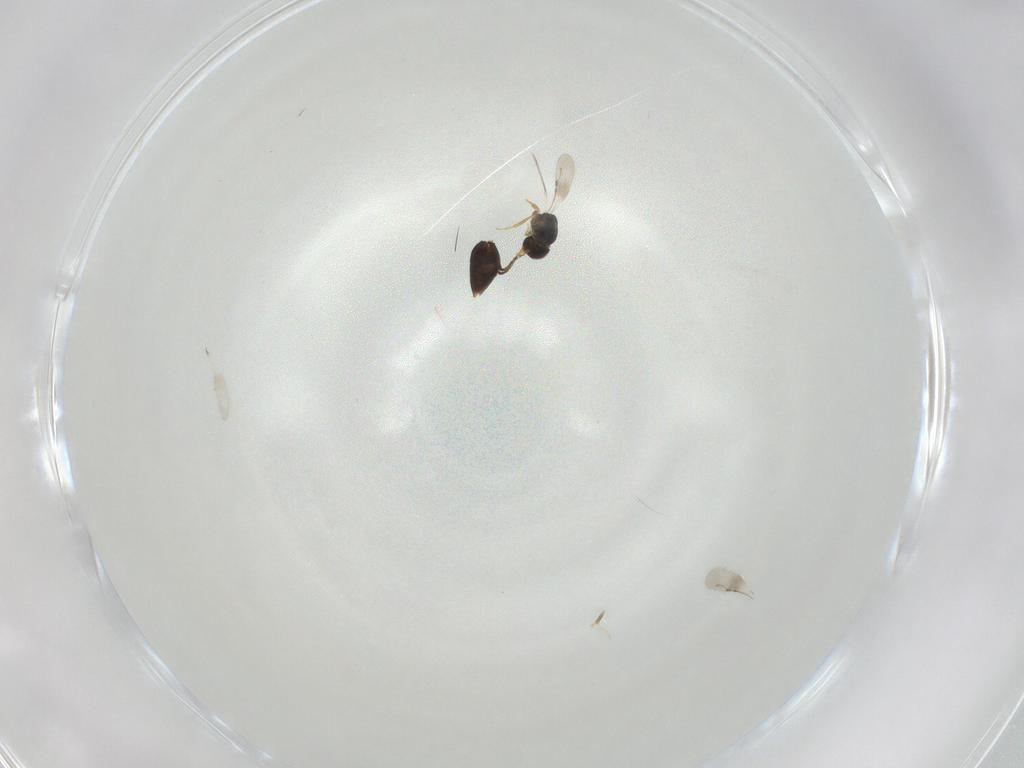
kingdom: Animalia
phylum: Arthropoda
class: Insecta
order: Hymenoptera
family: Ceraphronidae
